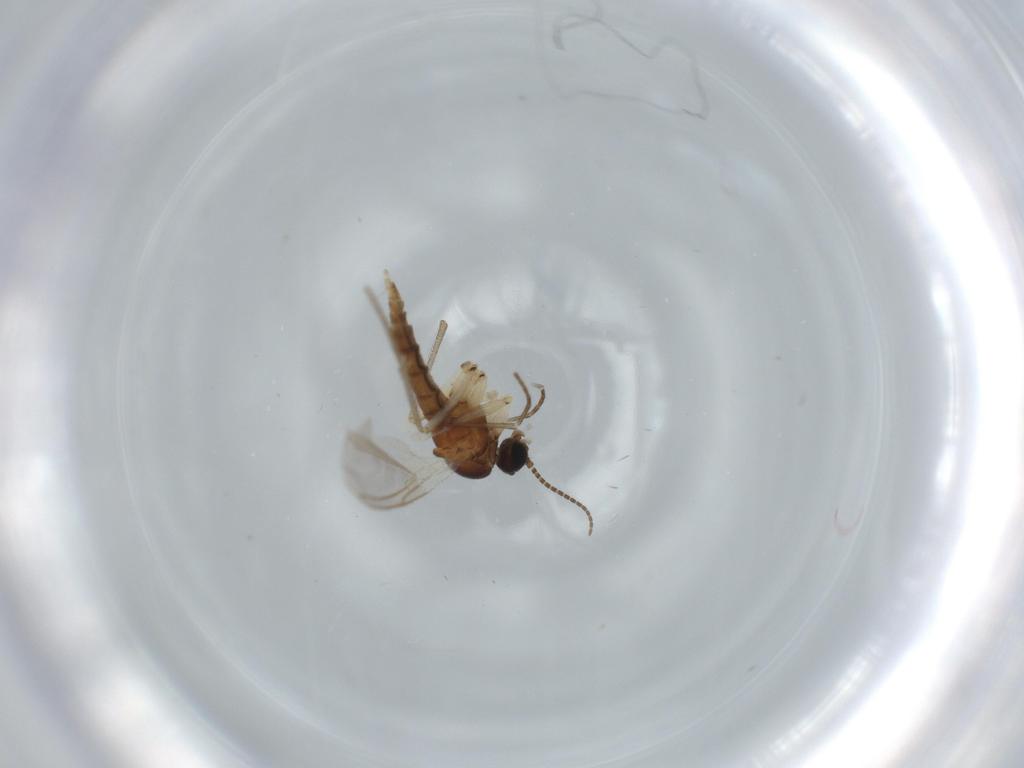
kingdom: Animalia
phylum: Arthropoda
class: Insecta
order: Diptera
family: Sciaridae
